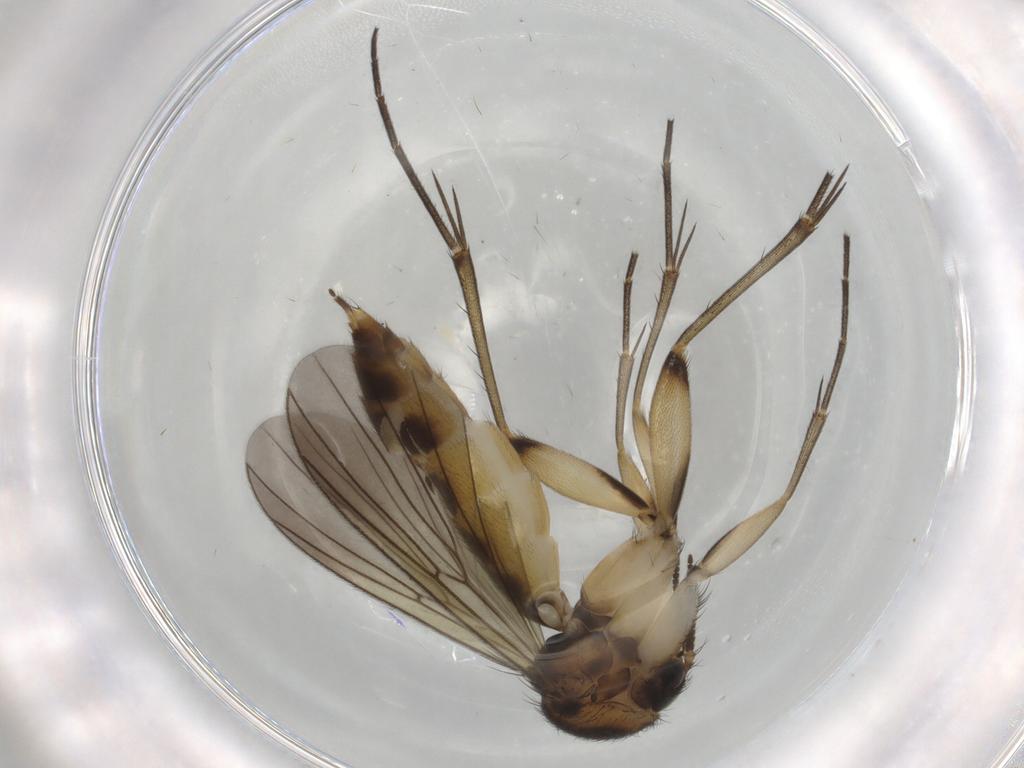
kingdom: Animalia
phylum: Arthropoda
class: Insecta
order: Diptera
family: Mycetophilidae
